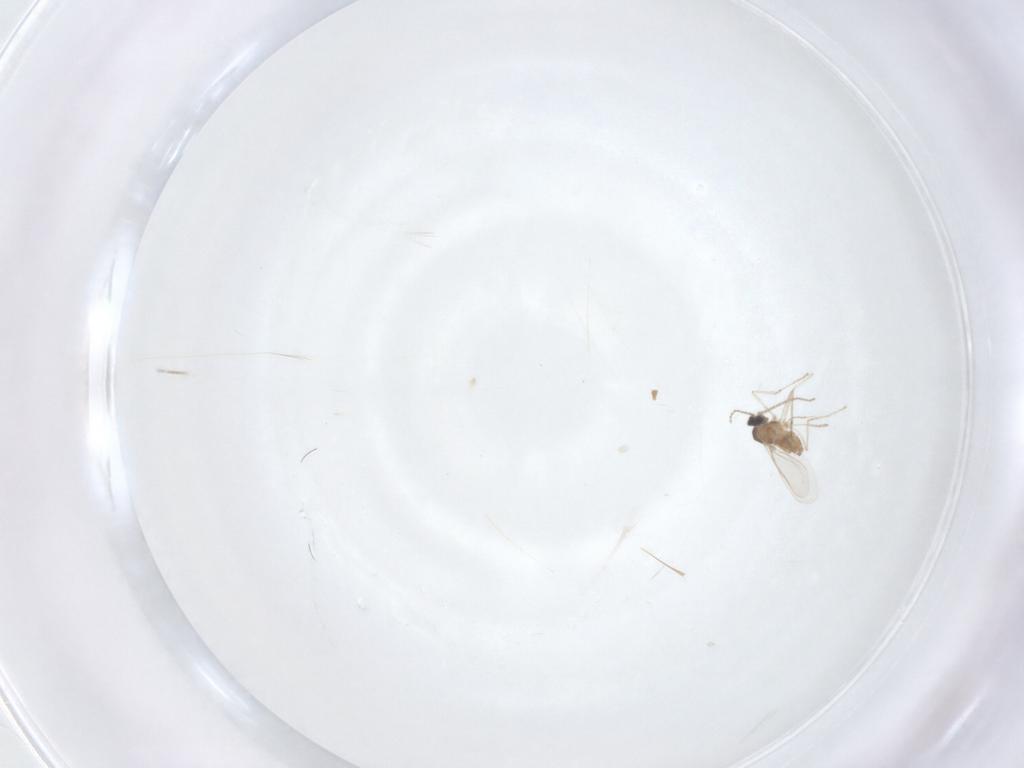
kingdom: Animalia
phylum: Arthropoda
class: Insecta
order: Diptera
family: Cecidomyiidae
